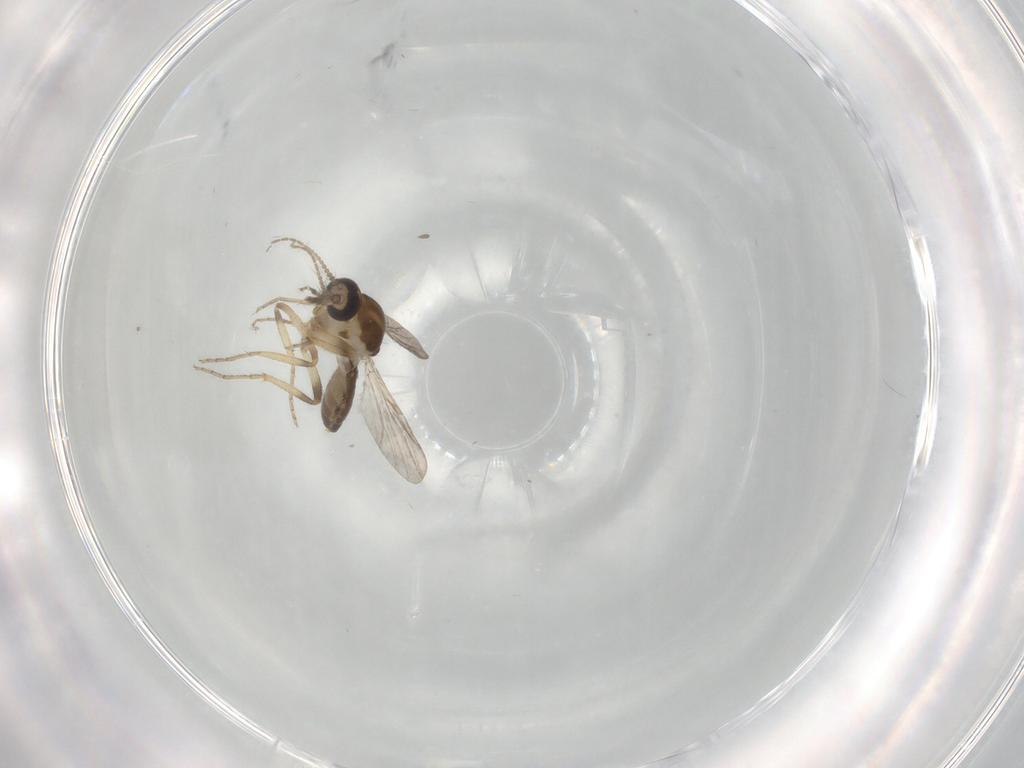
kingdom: Animalia
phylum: Arthropoda
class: Insecta
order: Diptera
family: Ceratopogonidae
